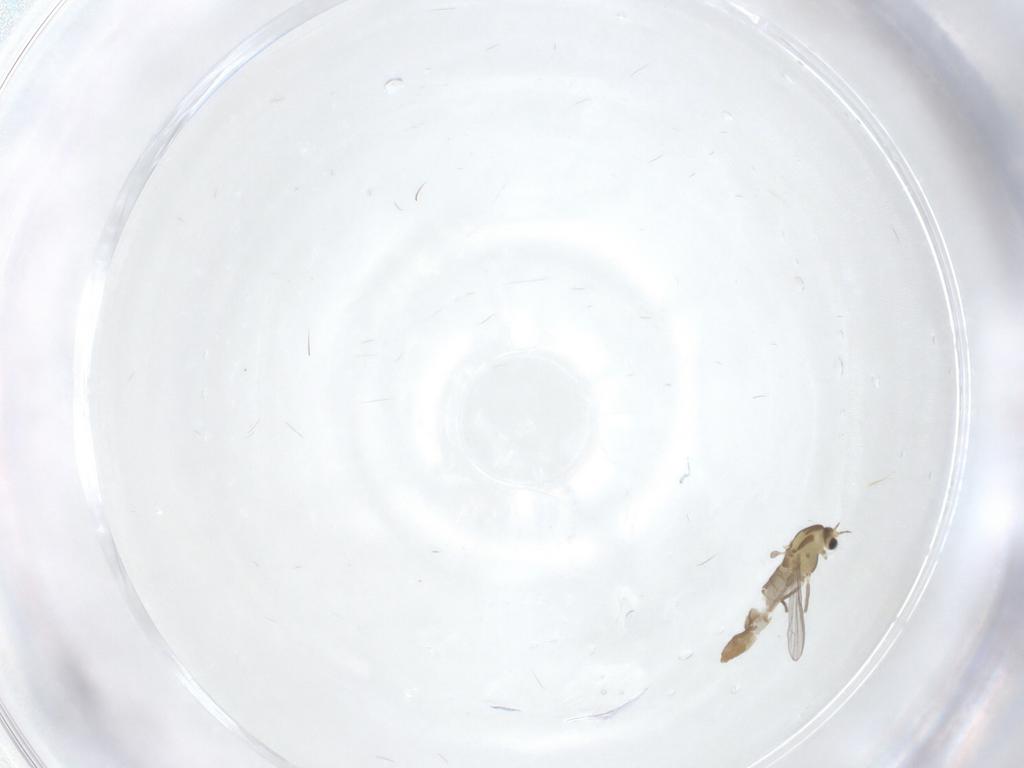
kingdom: Animalia
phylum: Arthropoda
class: Insecta
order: Diptera
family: Chironomidae
